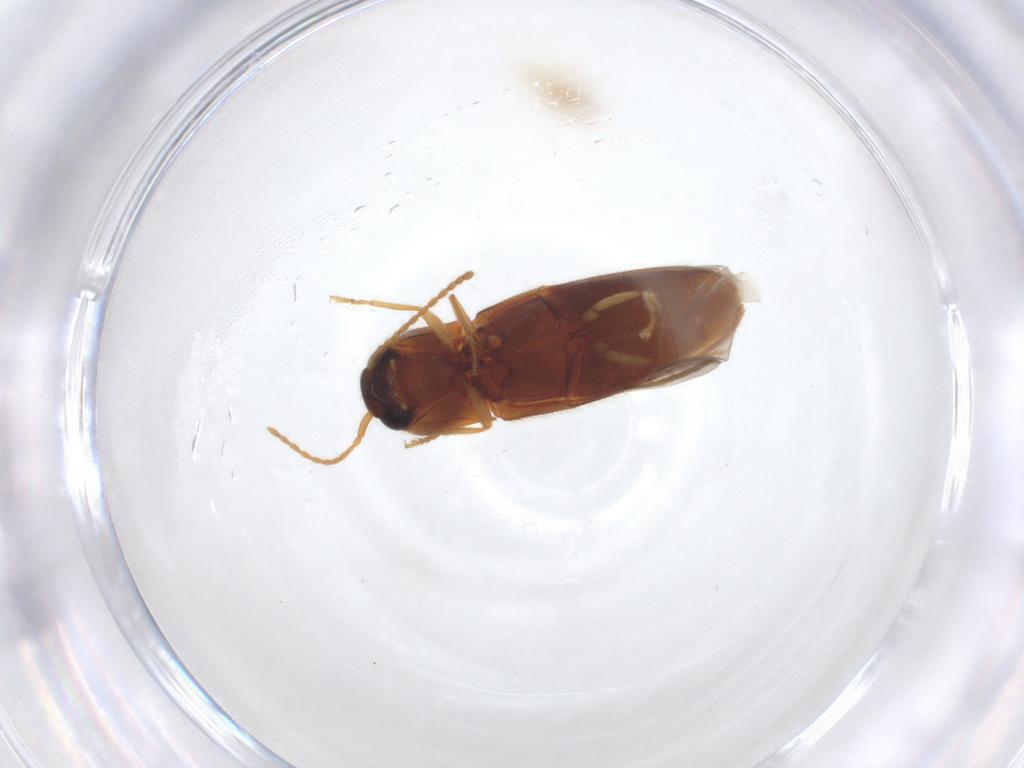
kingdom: Animalia
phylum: Arthropoda
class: Insecta
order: Coleoptera
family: Elateridae
